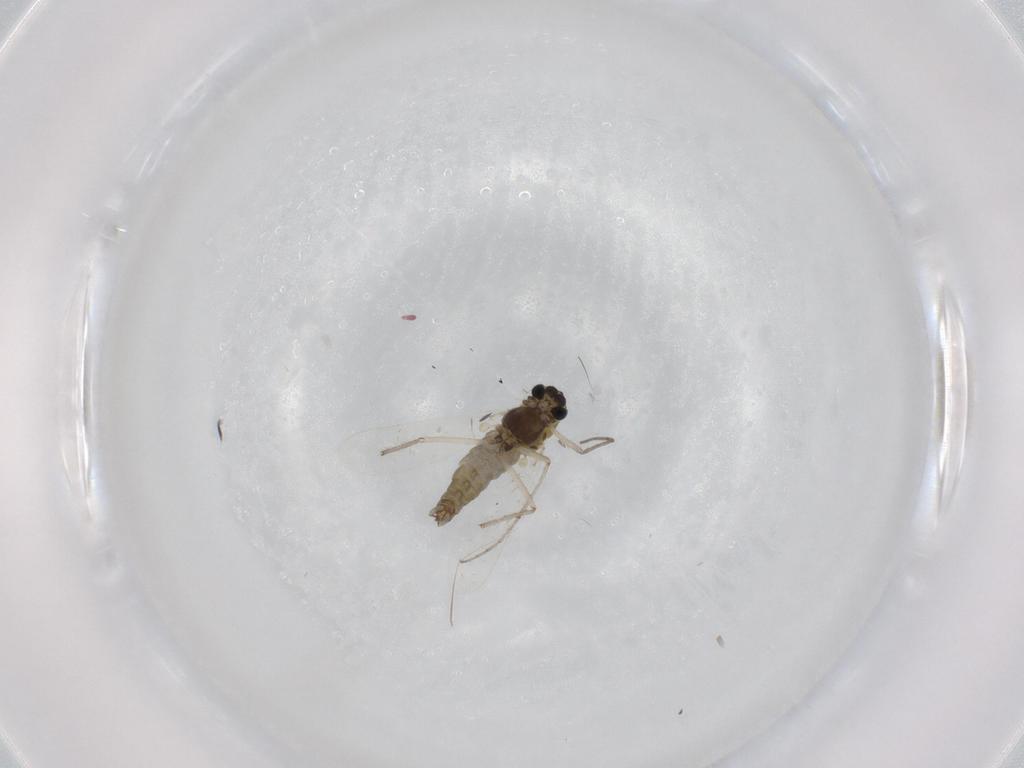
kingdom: Animalia
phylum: Arthropoda
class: Insecta
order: Diptera
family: Chironomidae
